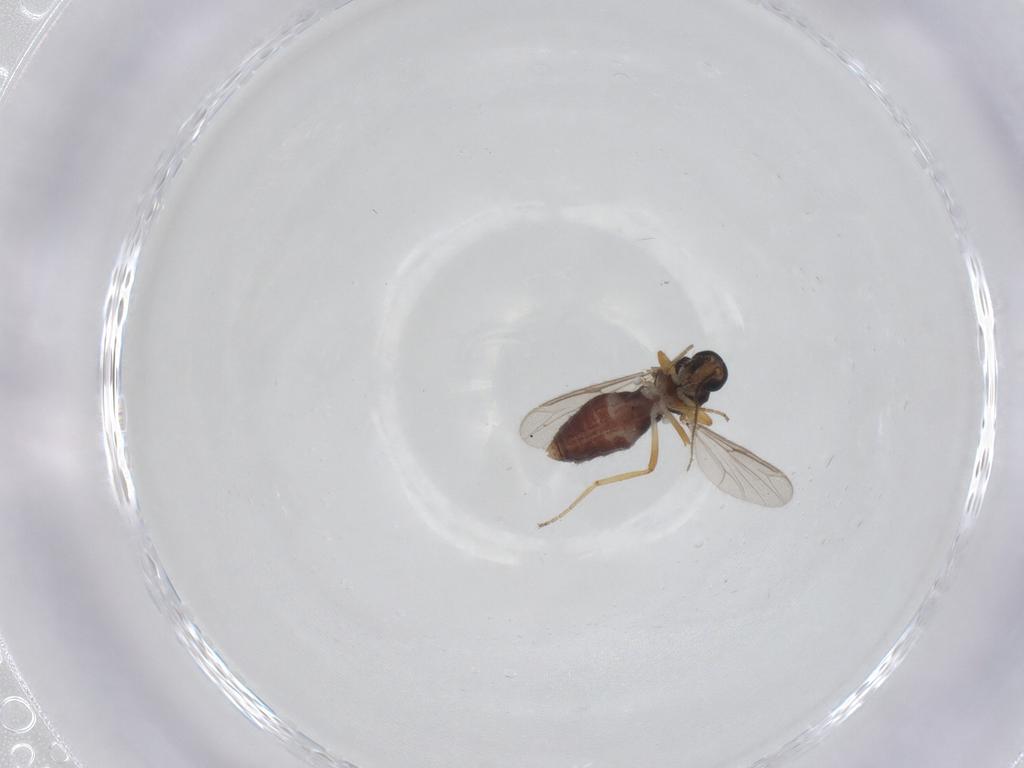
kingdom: Animalia
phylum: Arthropoda
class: Insecta
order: Diptera
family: Ceratopogonidae
